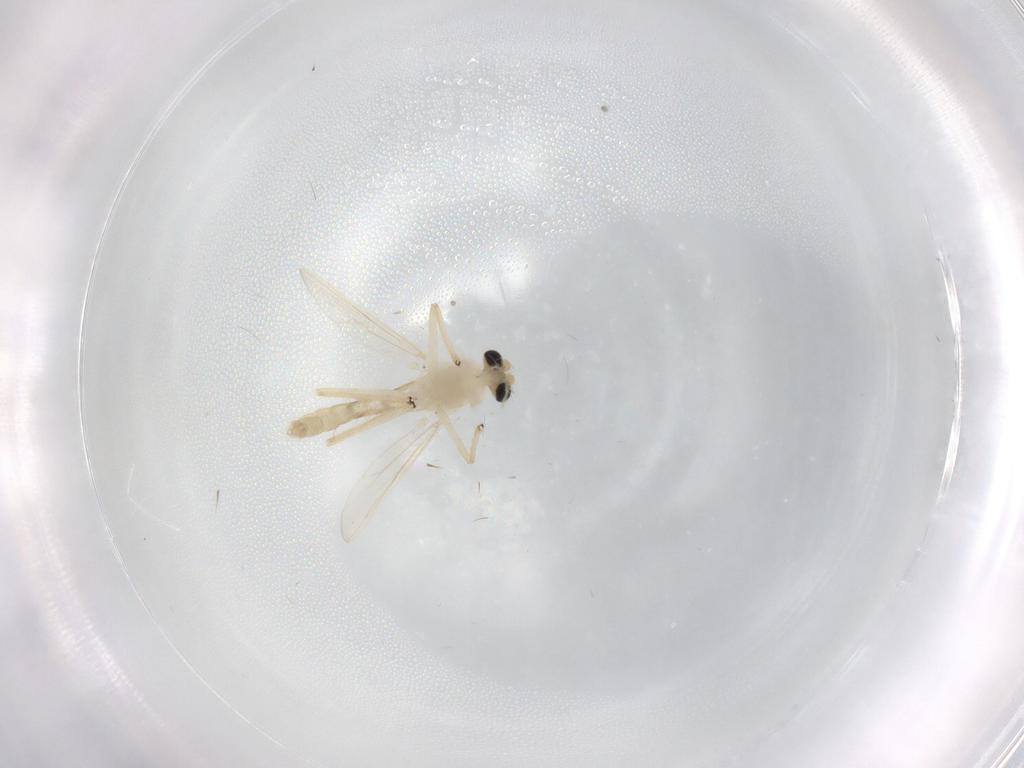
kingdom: Animalia
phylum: Arthropoda
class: Insecta
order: Diptera
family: Chironomidae
